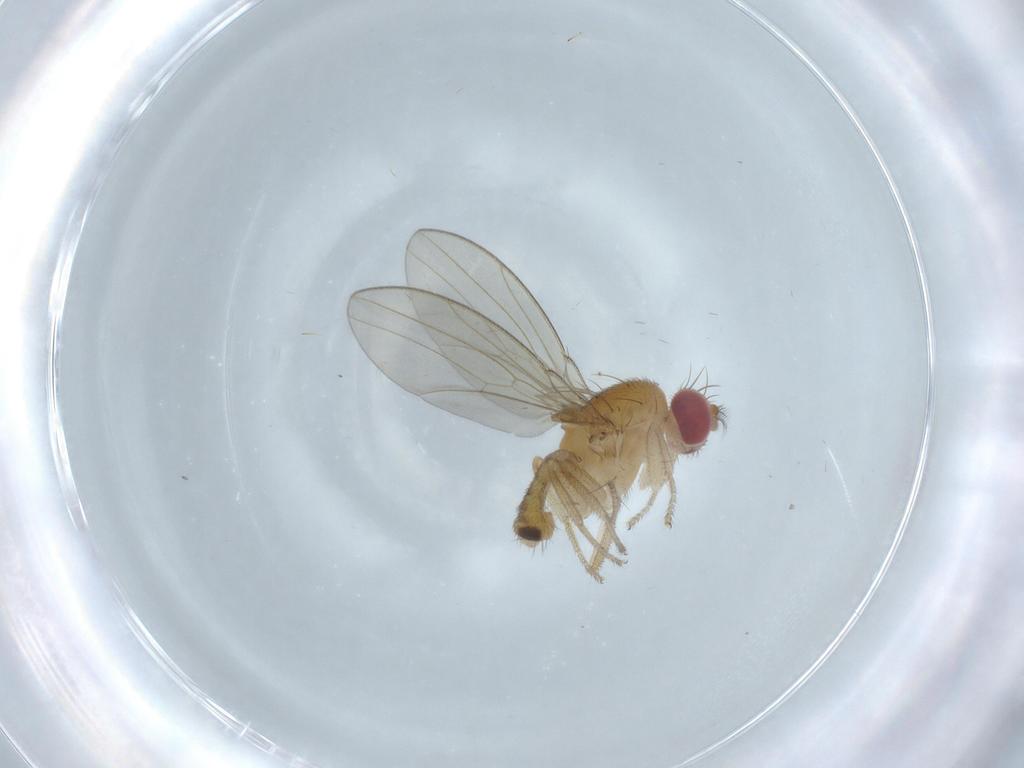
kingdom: Animalia
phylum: Arthropoda
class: Insecta
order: Diptera
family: Drosophilidae
